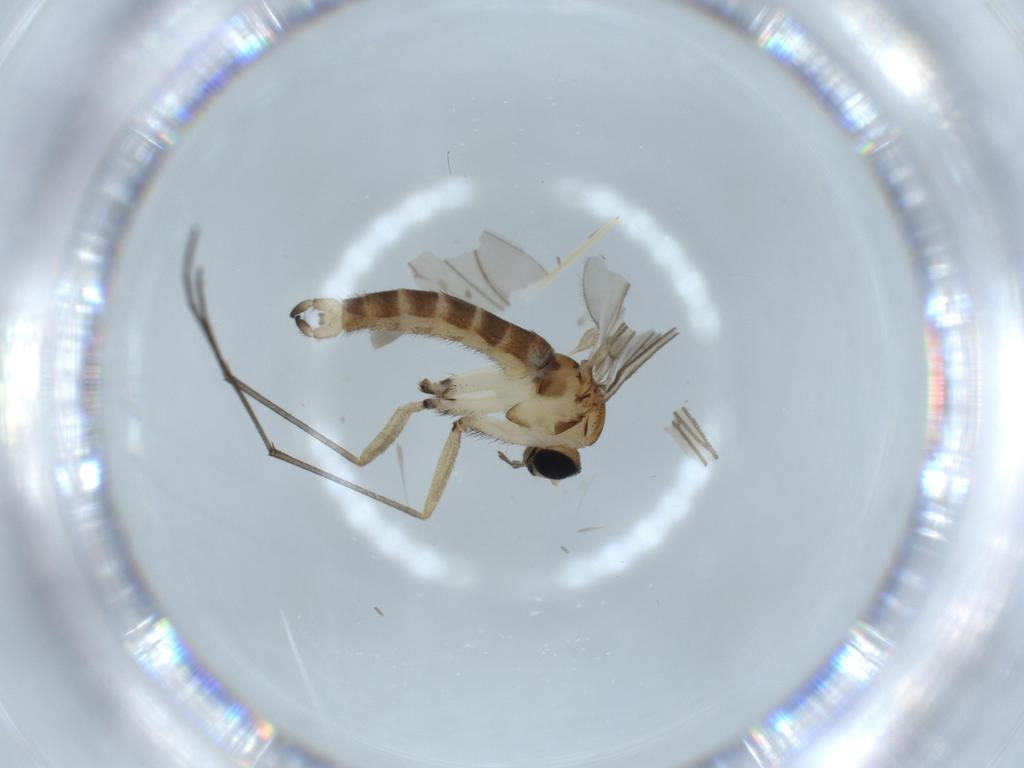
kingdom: Animalia
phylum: Arthropoda
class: Insecta
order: Diptera
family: Sciaridae
